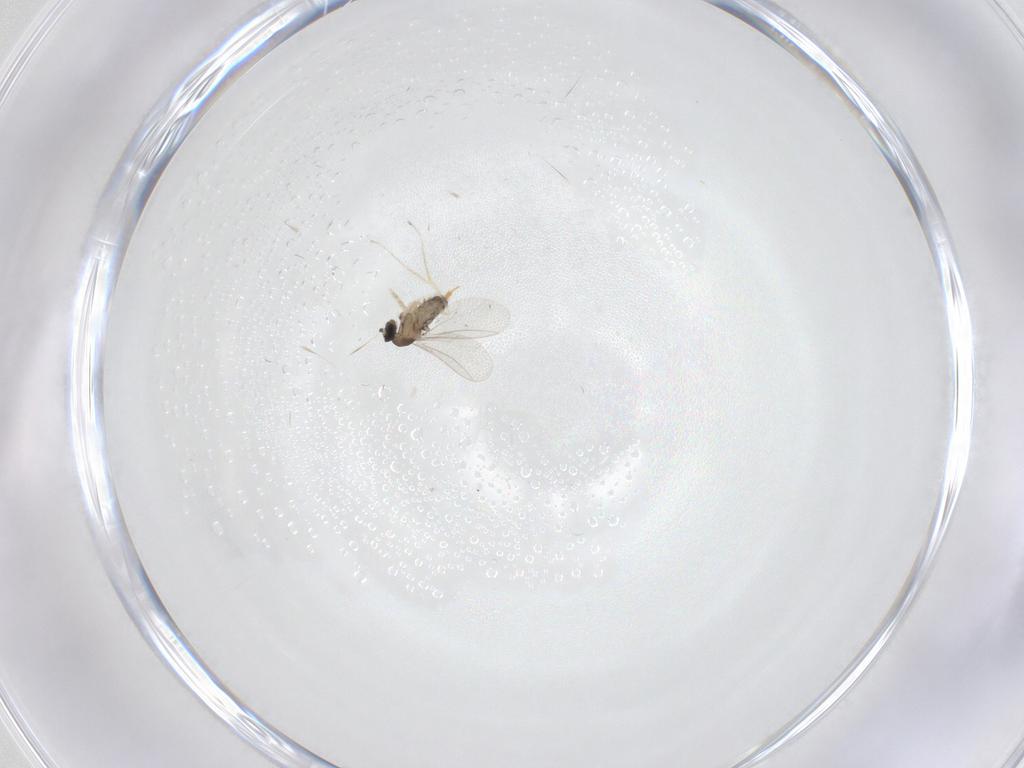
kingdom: Animalia
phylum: Arthropoda
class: Insecta
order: Diptera
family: Cecidomyiidae
